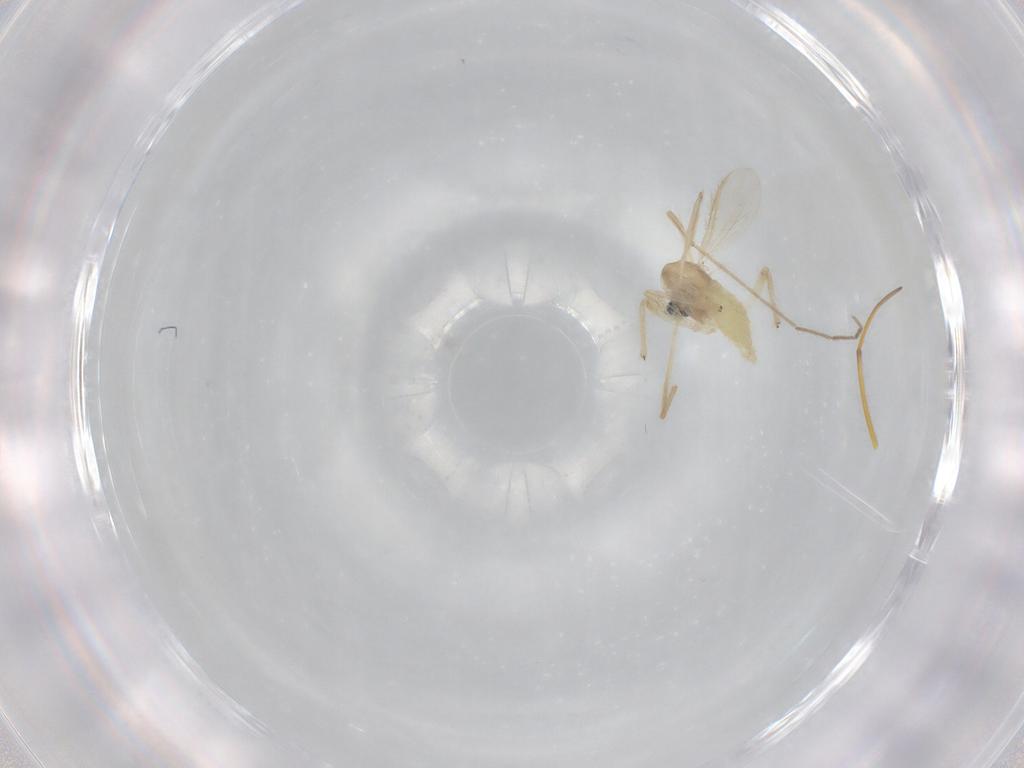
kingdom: Animalia
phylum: Arthropoda
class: Insecta
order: Diptera
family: Chironomidae
